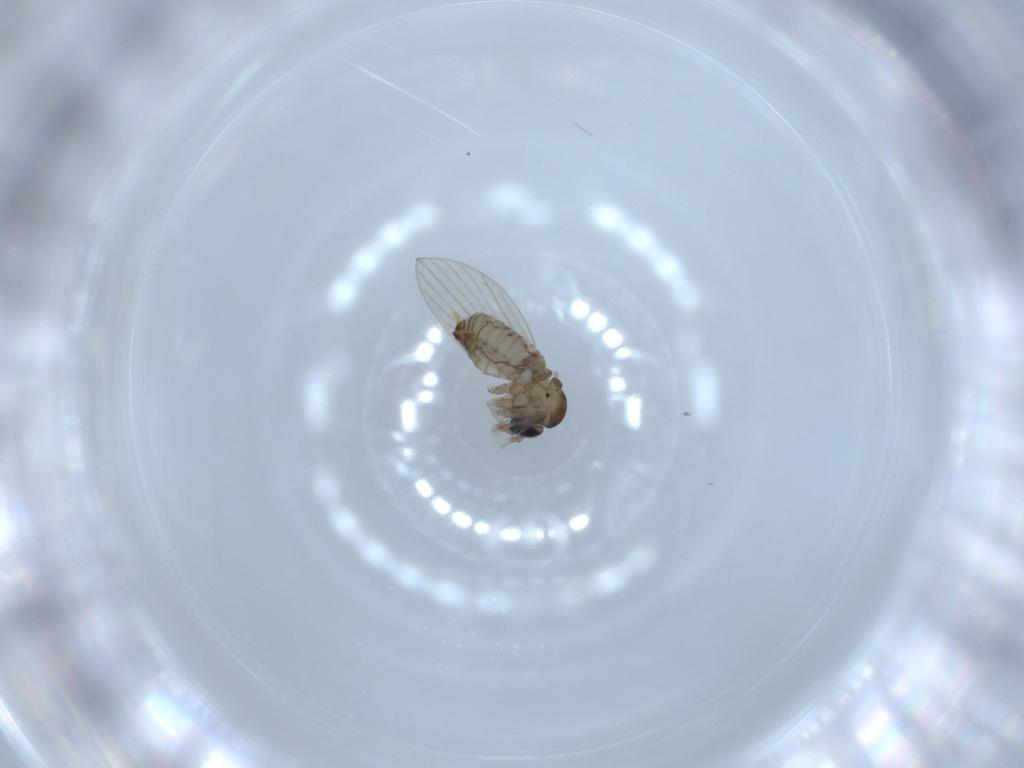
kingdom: Animalia
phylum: Arthropoda
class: Insecta
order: Diptera
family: Psychodidae
